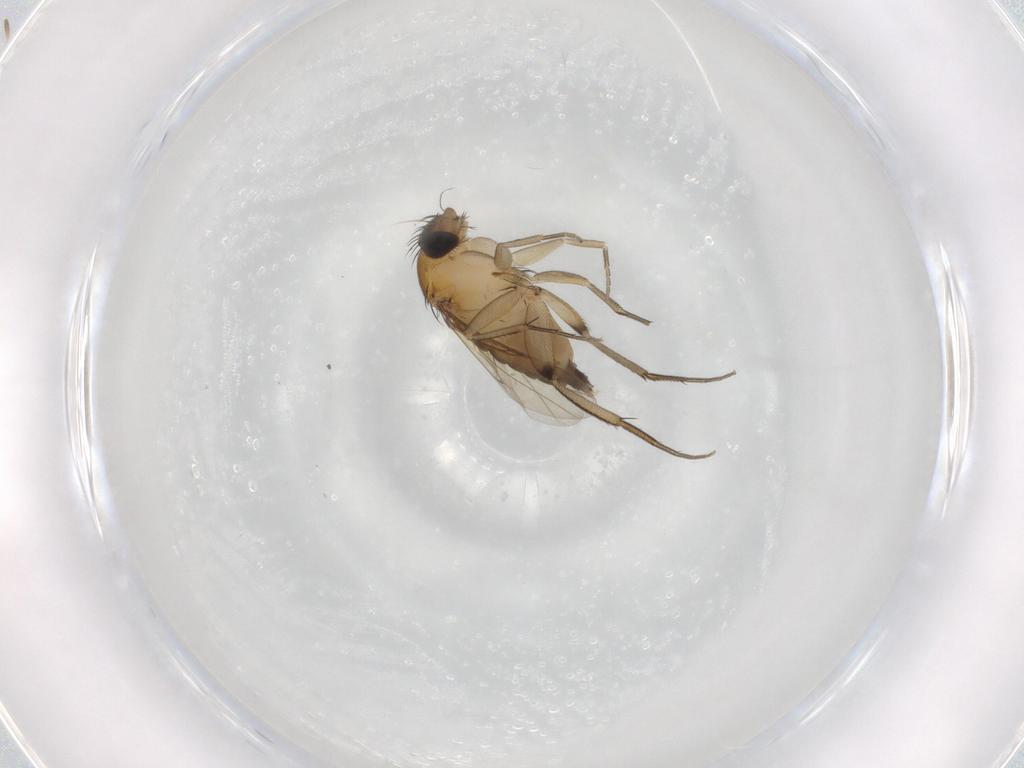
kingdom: Animalia
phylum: Arthropoda
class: Insecta
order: Diptera
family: Phoridae
